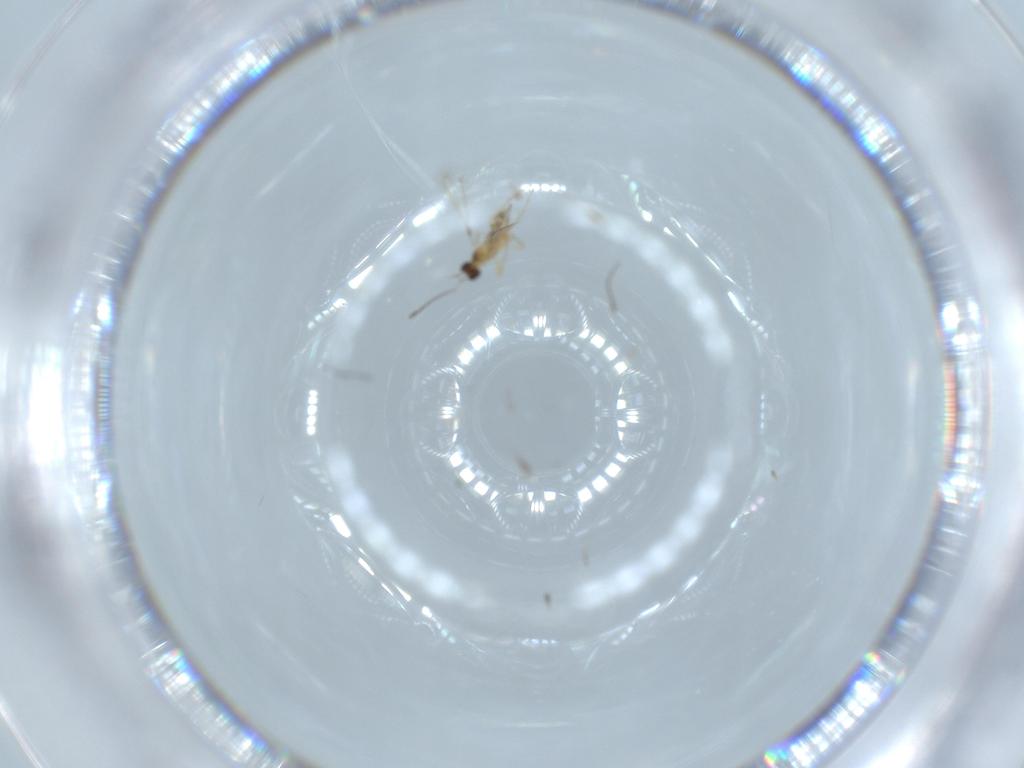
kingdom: Animalia
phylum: Arthropoda
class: Insecta
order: Hymenoptera
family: Mymaridae
